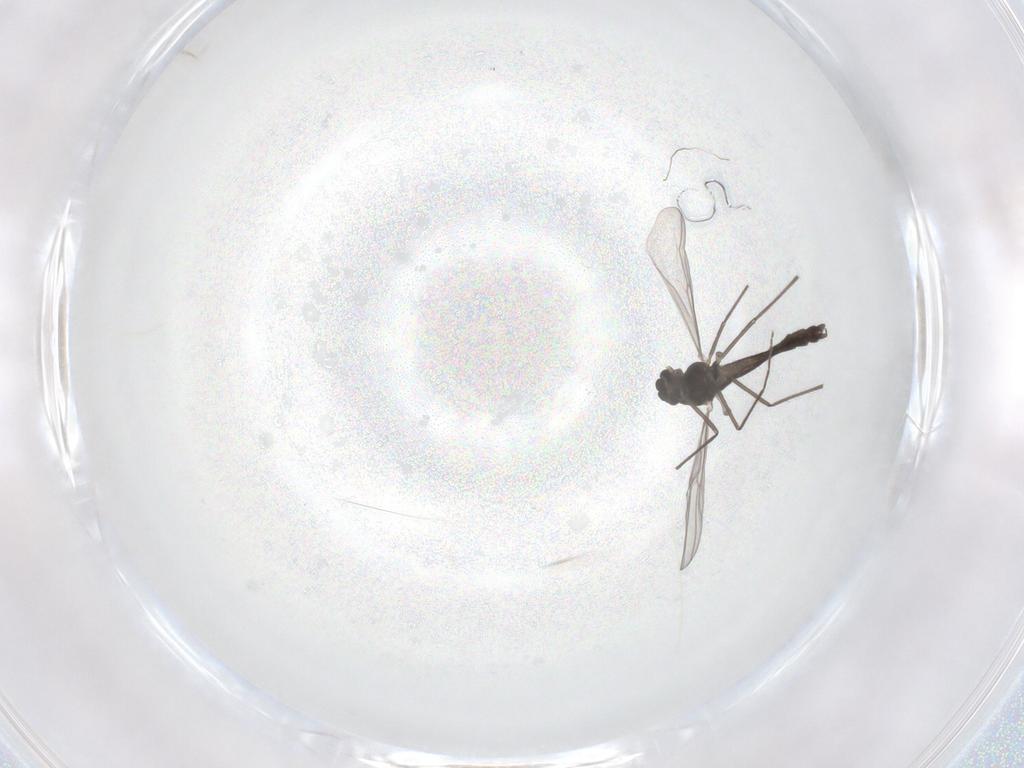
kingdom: Animalia
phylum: Arthropoda
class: Insecta
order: Diptera
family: Chironomidae
